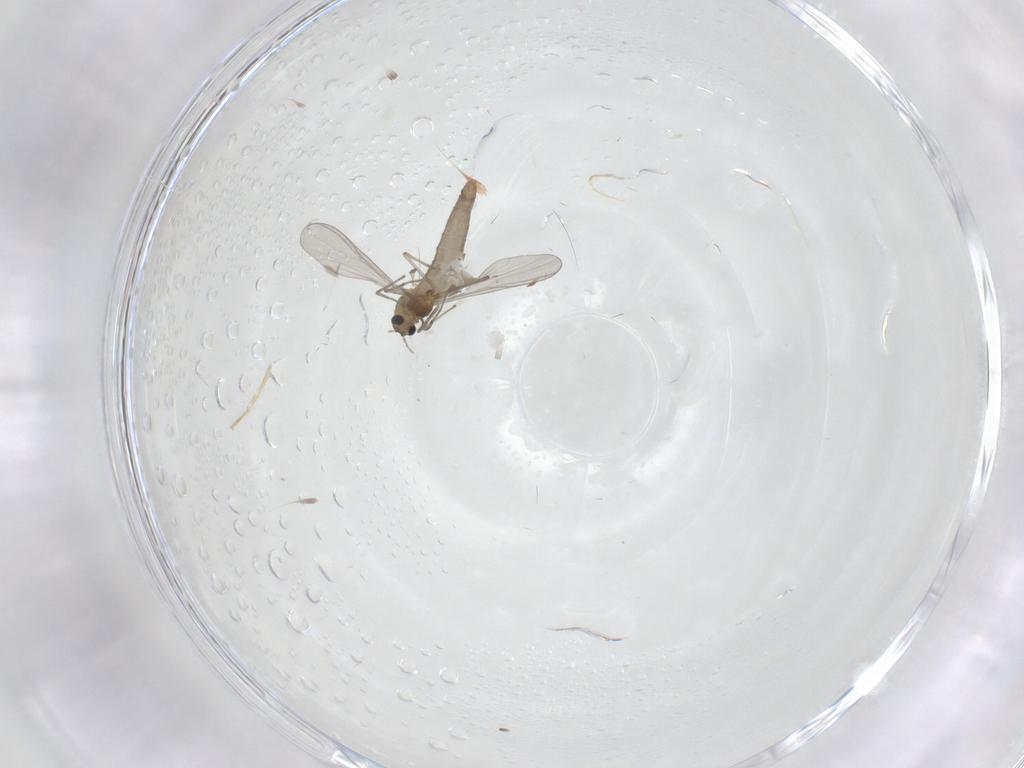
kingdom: Animalia
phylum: Arthropoda
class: Insecta
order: Diptera
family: Chironomidae
